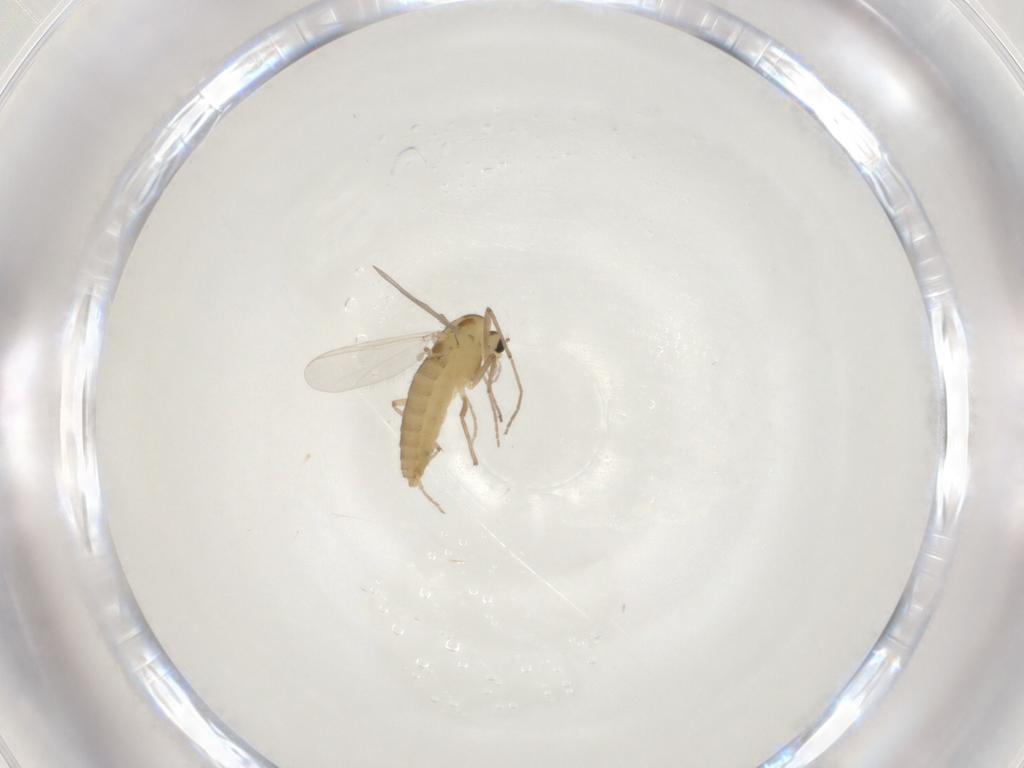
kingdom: Animalia
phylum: Arthropoda
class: Insecta
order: Diptera
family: Chironomidae
